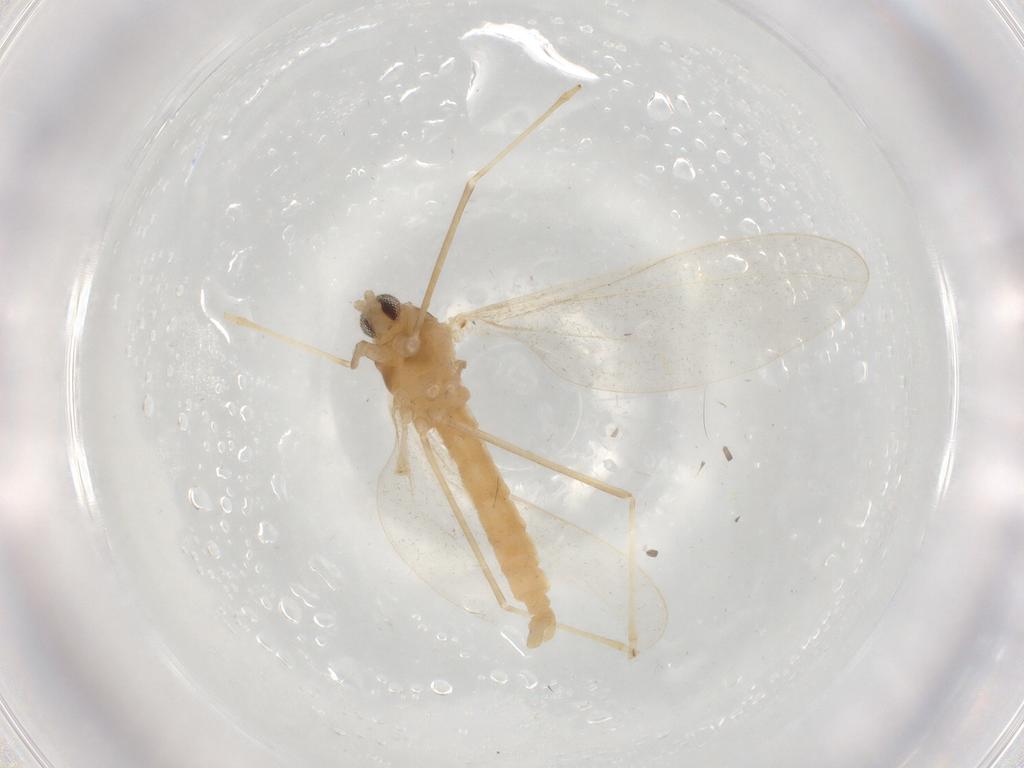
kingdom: Animalia
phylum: Arthropoda
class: Insecta
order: Diptera
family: Cecidomyiidae
